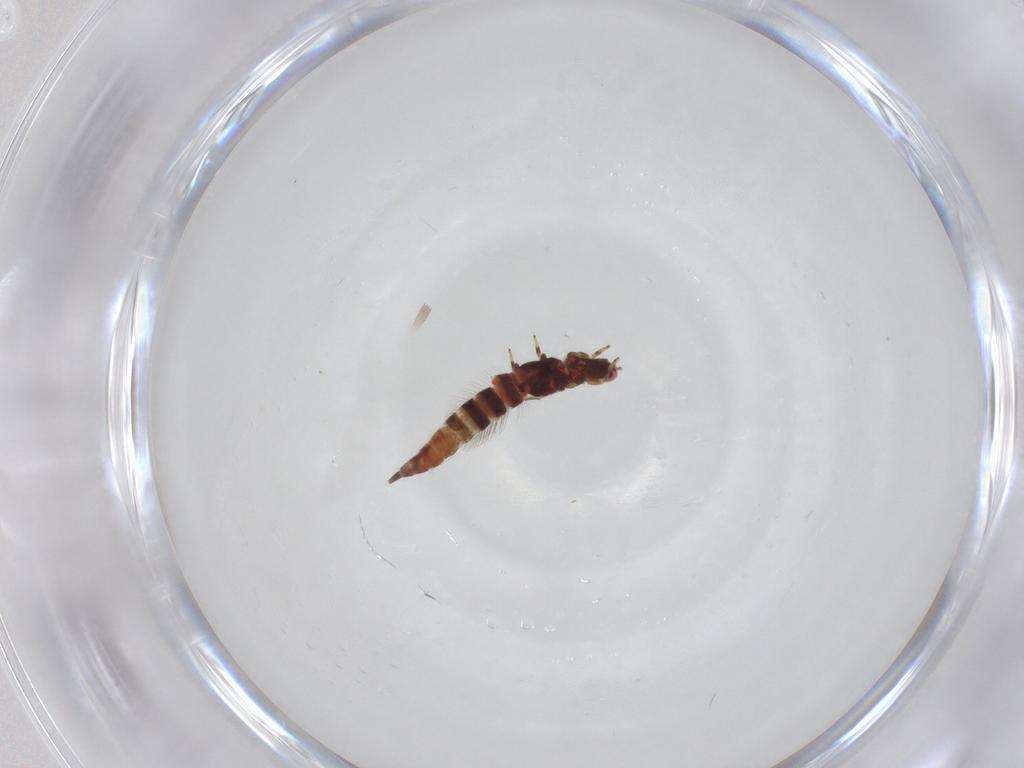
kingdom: Animalia
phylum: Arthropoda
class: Insecta
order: Thysanoptera
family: Phlaeothripidae
